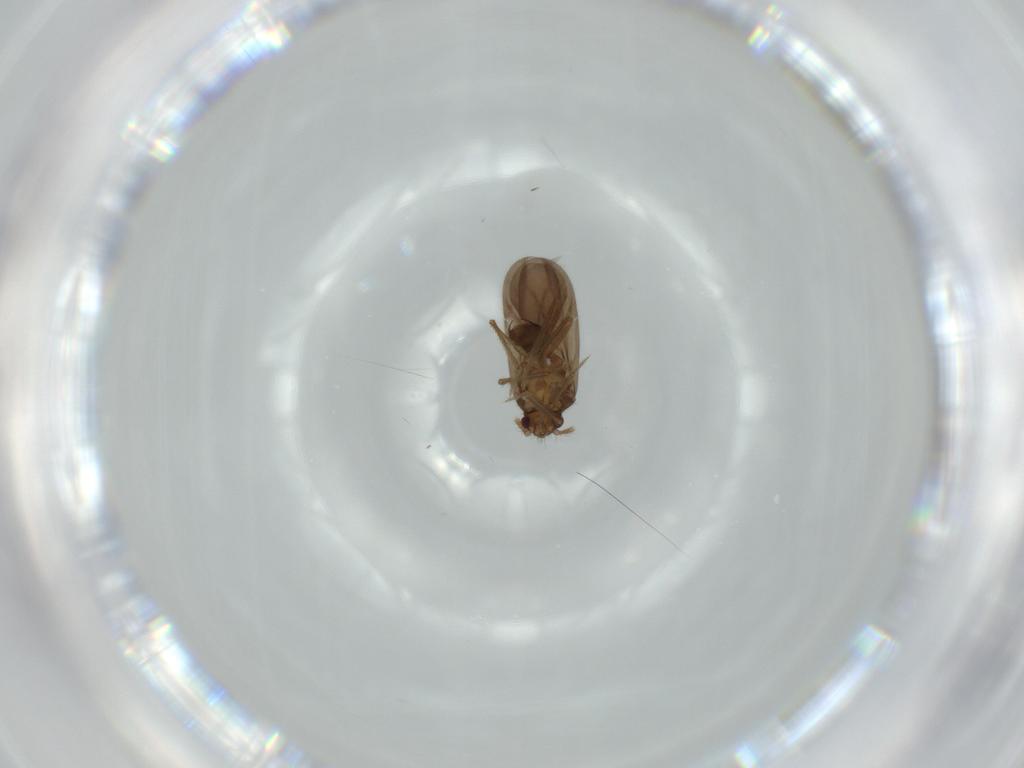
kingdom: Animalia
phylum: Arthropoda
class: Insecta
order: Hemiptera
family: Ceratocombidae
